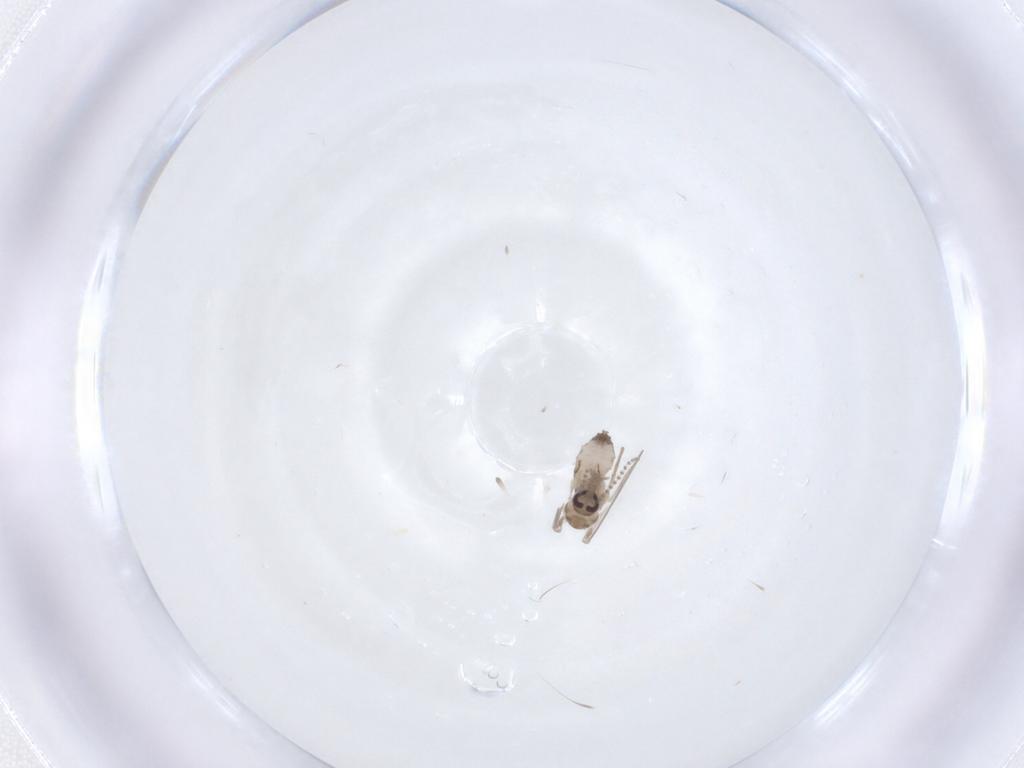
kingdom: Animalia
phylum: Arthropoda
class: Insecta
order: Diptera
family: Psychodidae
